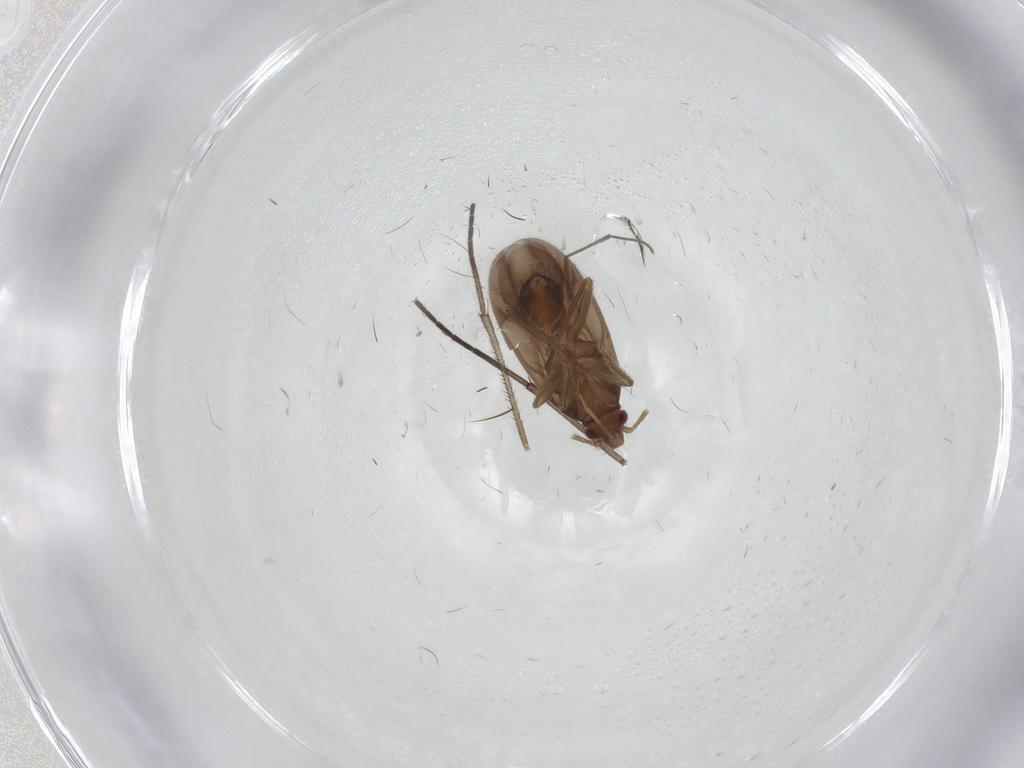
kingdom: Animalia
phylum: Arthropoda
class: Insecta
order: Hemiptera
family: Ceratocombidae
